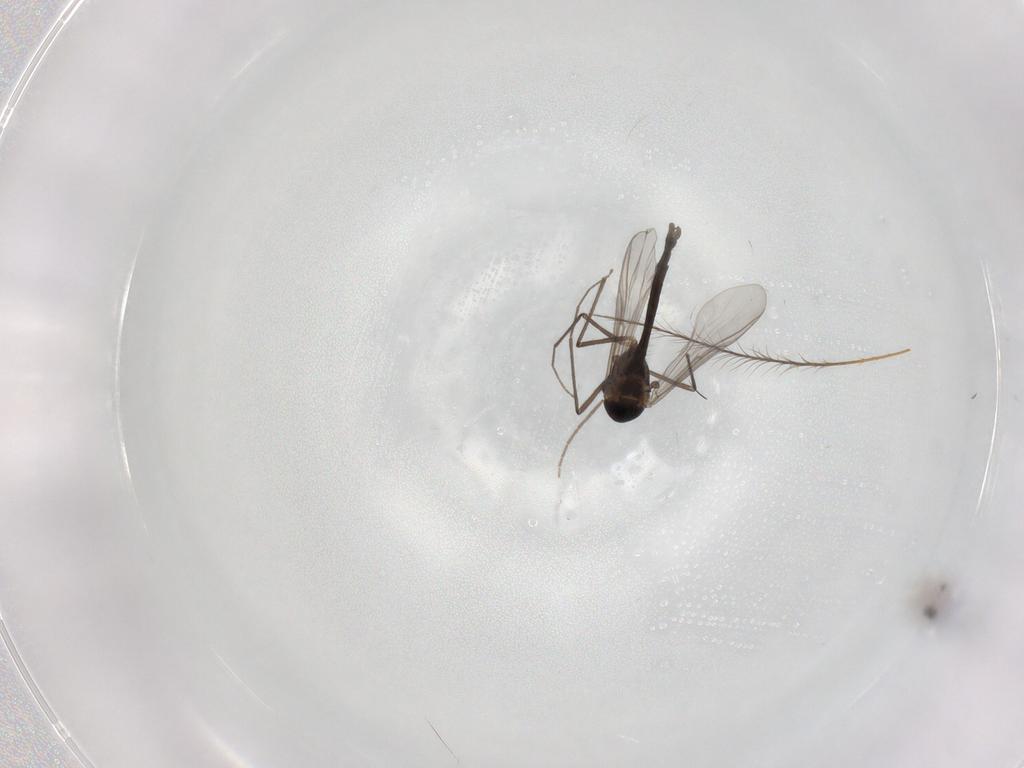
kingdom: Animalia
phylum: Arthropoda
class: Insecta
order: Diptera
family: Chironomidae
